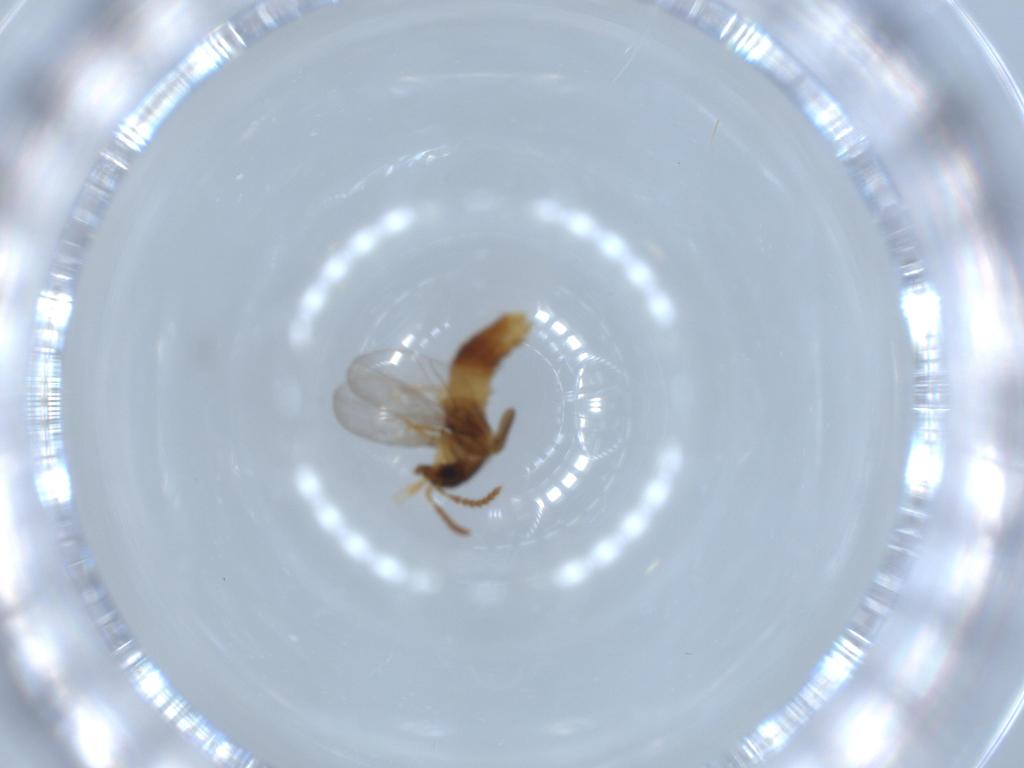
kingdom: Animalia
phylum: Arthropoda
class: Insecta
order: Coleoptera
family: Staphylinidae
